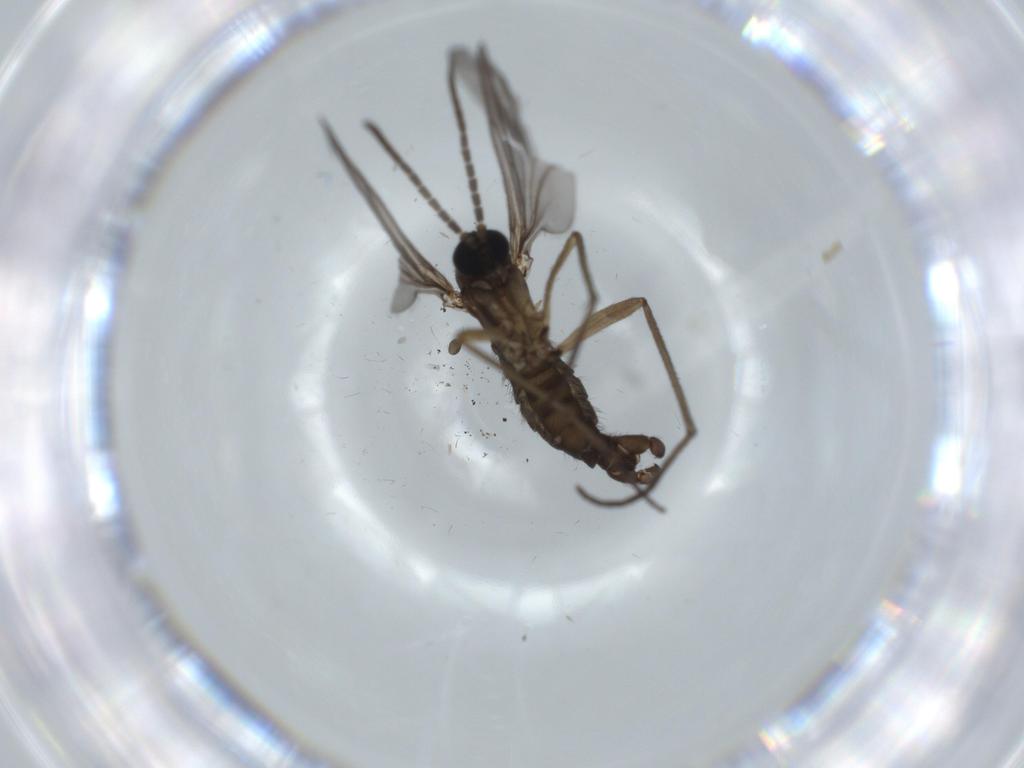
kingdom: Animalia
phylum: Arthropoda
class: Insecta
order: Diptera
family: Sciaridae
